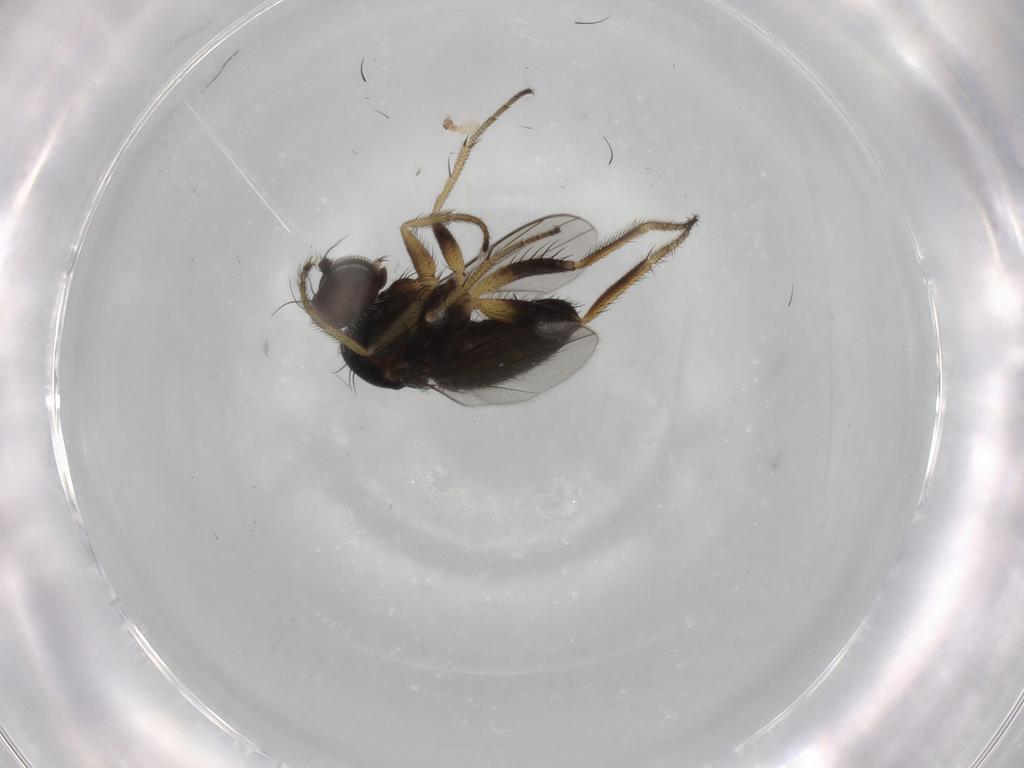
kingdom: Animalia
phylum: Arthropoda
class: Insecta
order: Diptera
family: Dolichopodidae
